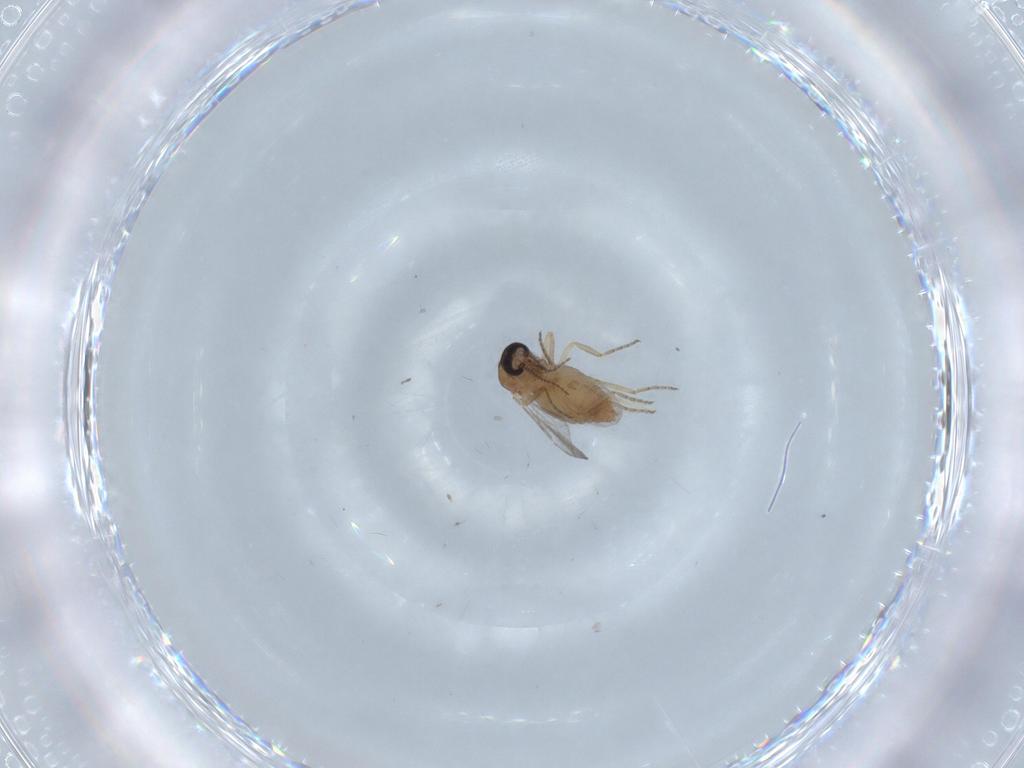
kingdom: Animalia
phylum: Arthropoda
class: Insecta
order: Diptera
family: Ceratopogonidae
